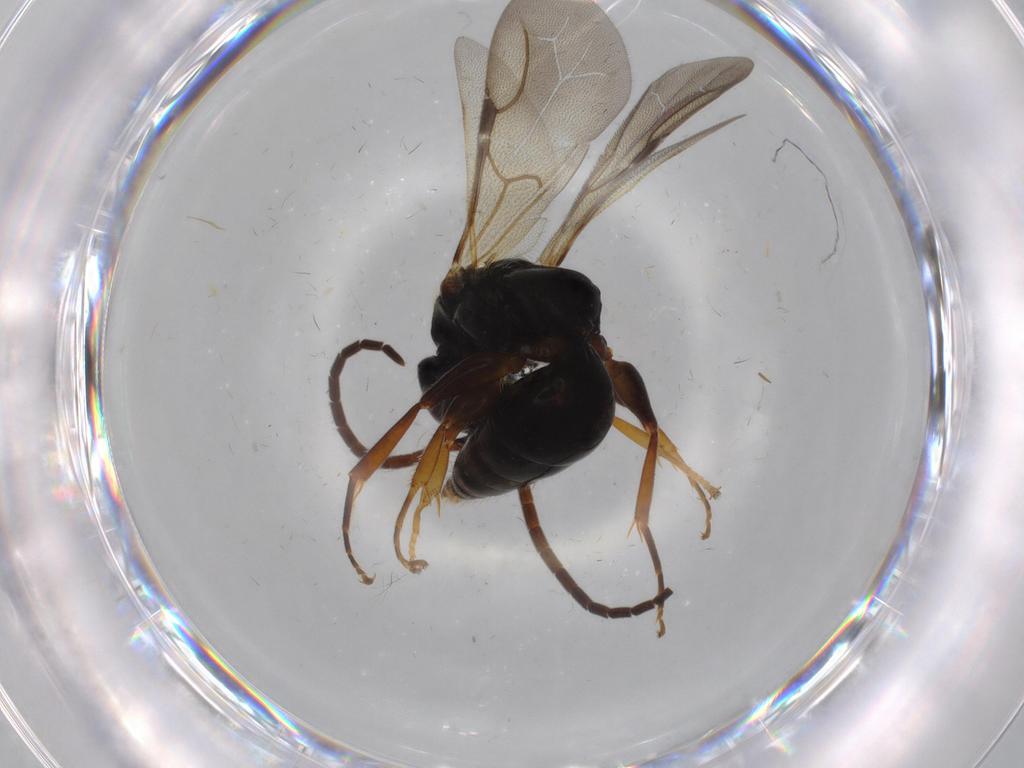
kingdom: Animalia
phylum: Arthropoda
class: Insecta
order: Hymenoptera
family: Bethylidae
